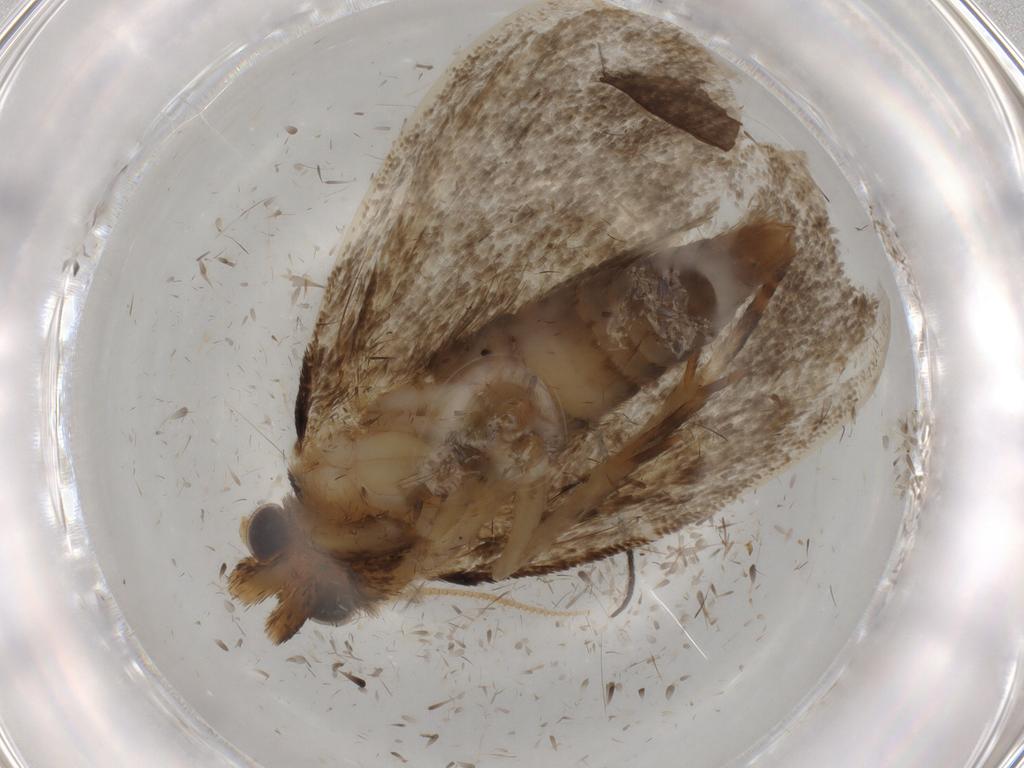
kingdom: Animalia
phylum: Arthropoda
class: Insecta
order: Lepidoptera
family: Tineidae
